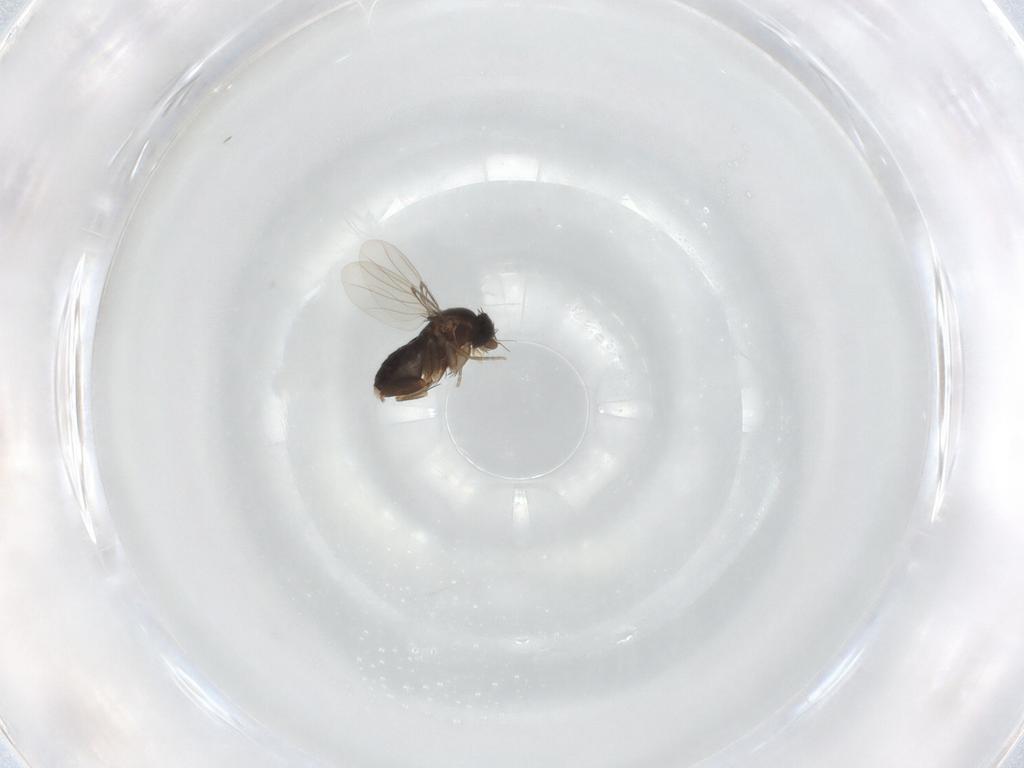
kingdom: Animalia
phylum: Arthropoda
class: Insecta
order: Diptera
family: Phoridae
